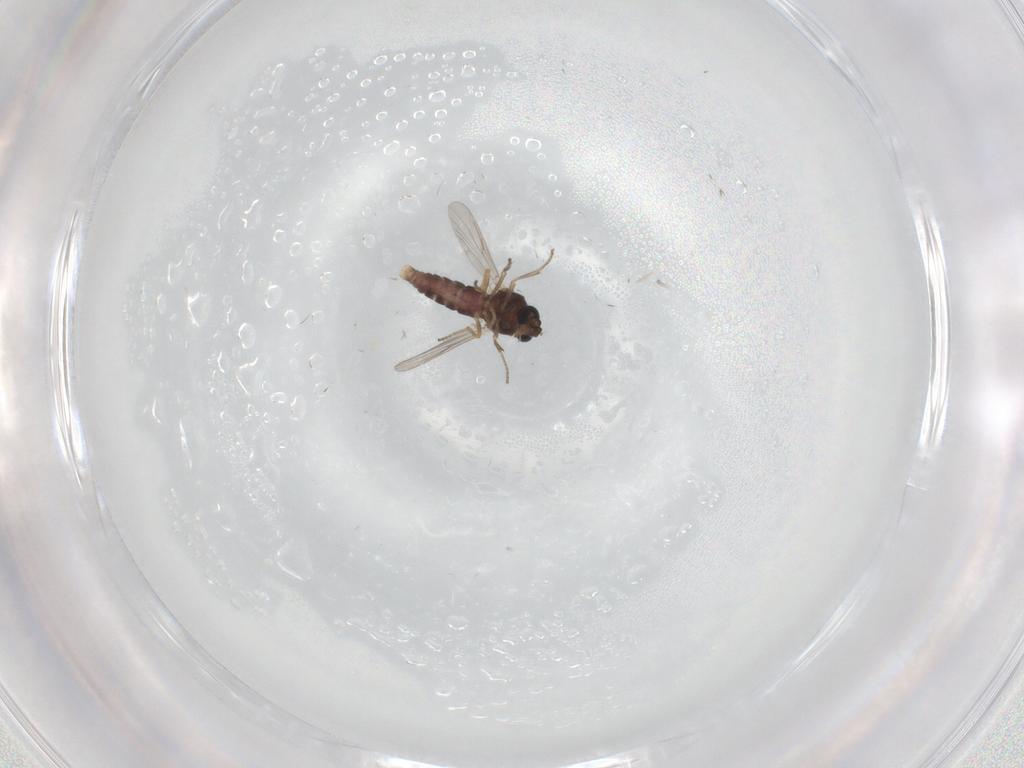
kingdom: Animalia
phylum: Arthropoda
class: Insecta
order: Diptera
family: Ceratopogonidae
